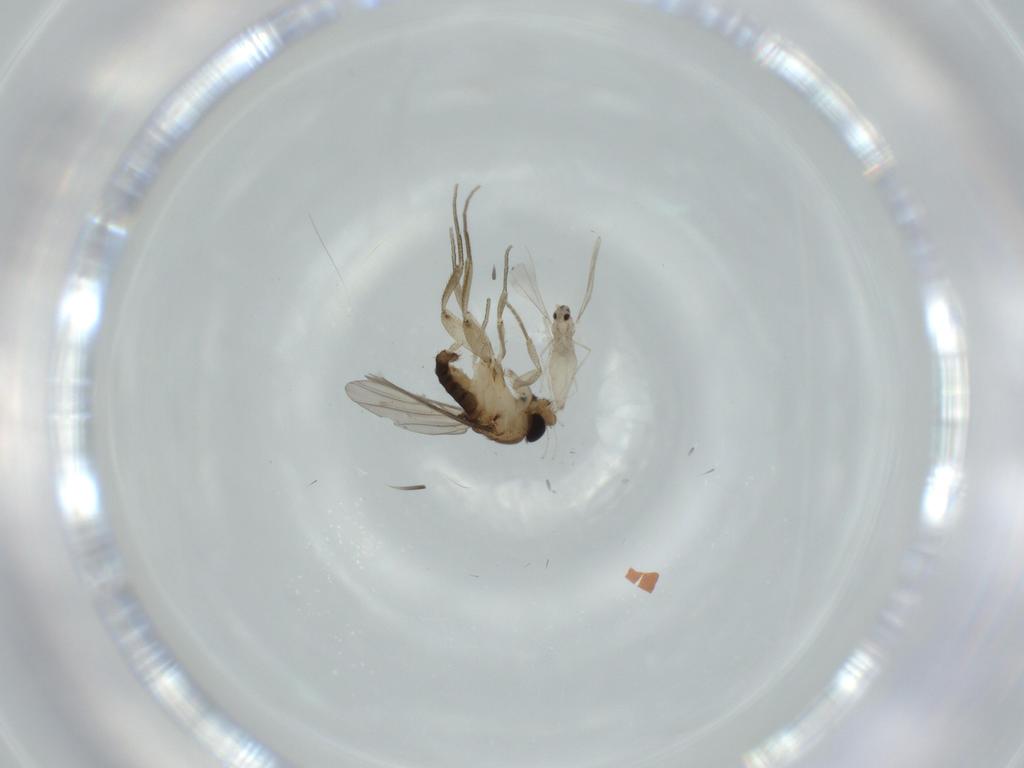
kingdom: Animalia
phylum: Arthropoda
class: Insecta
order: Diptera
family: Phoridae
